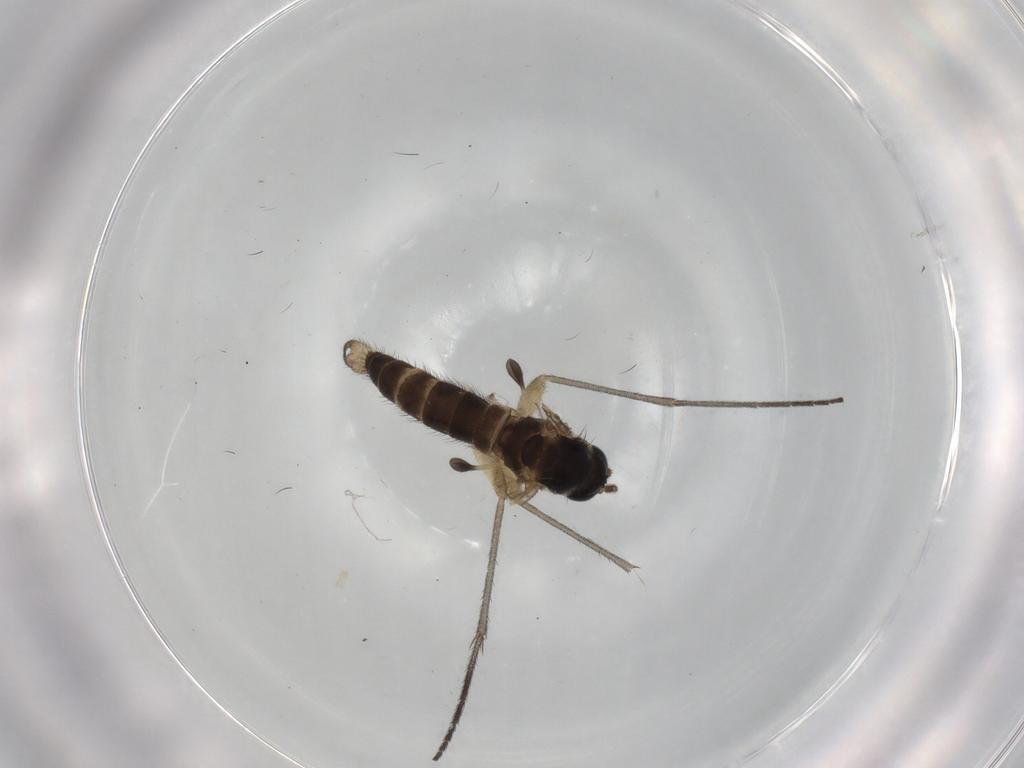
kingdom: Animalia
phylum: Arthropoda
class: Insecta
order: Diptera
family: Sciaridae
